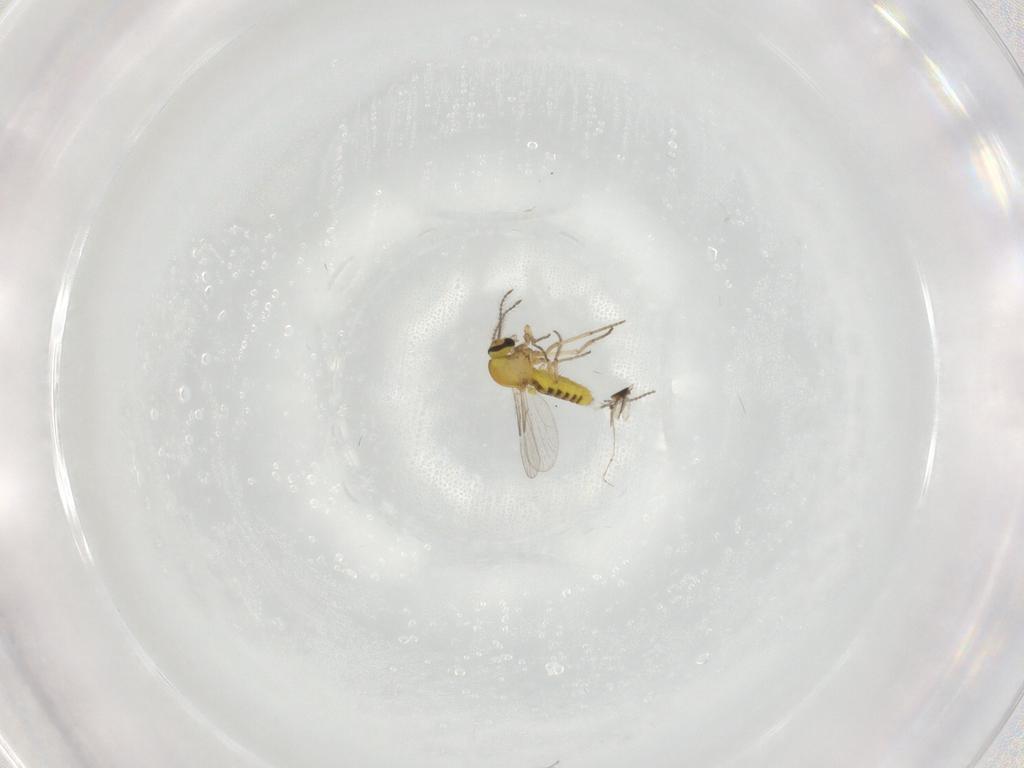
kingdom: Animalia
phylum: Arthropoda
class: Insecta
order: Diptera
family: Ceratopogonidae
